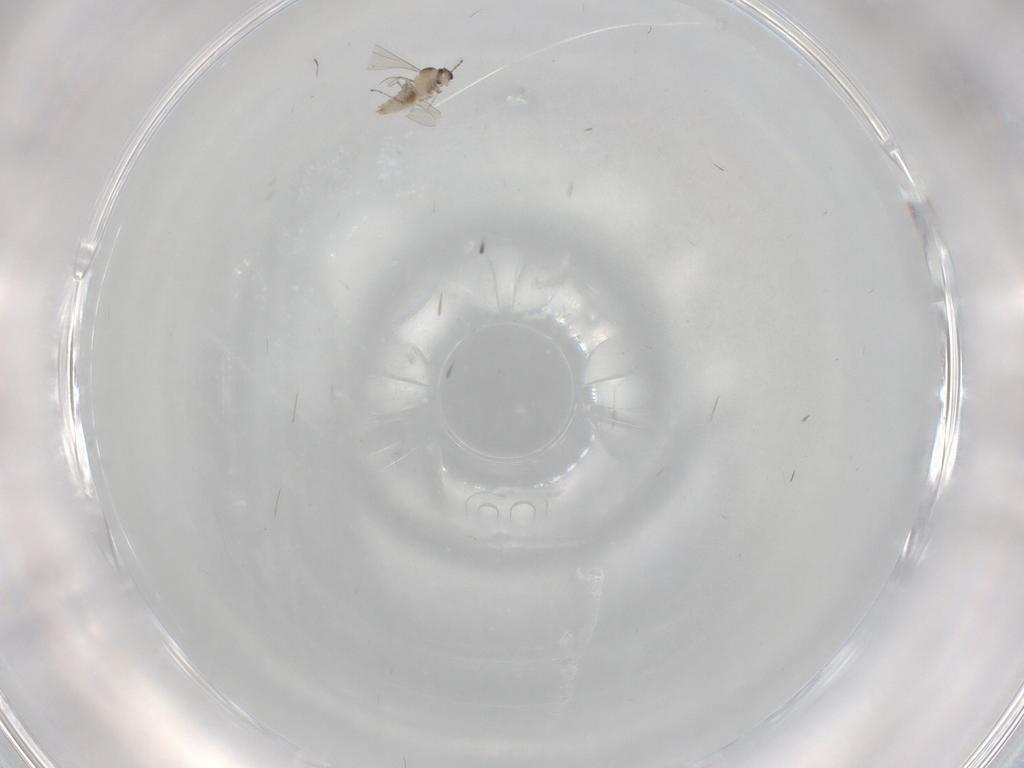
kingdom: Animalia
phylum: Arthropoda
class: Insecta
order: Diptera
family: Cecidomyiidae
